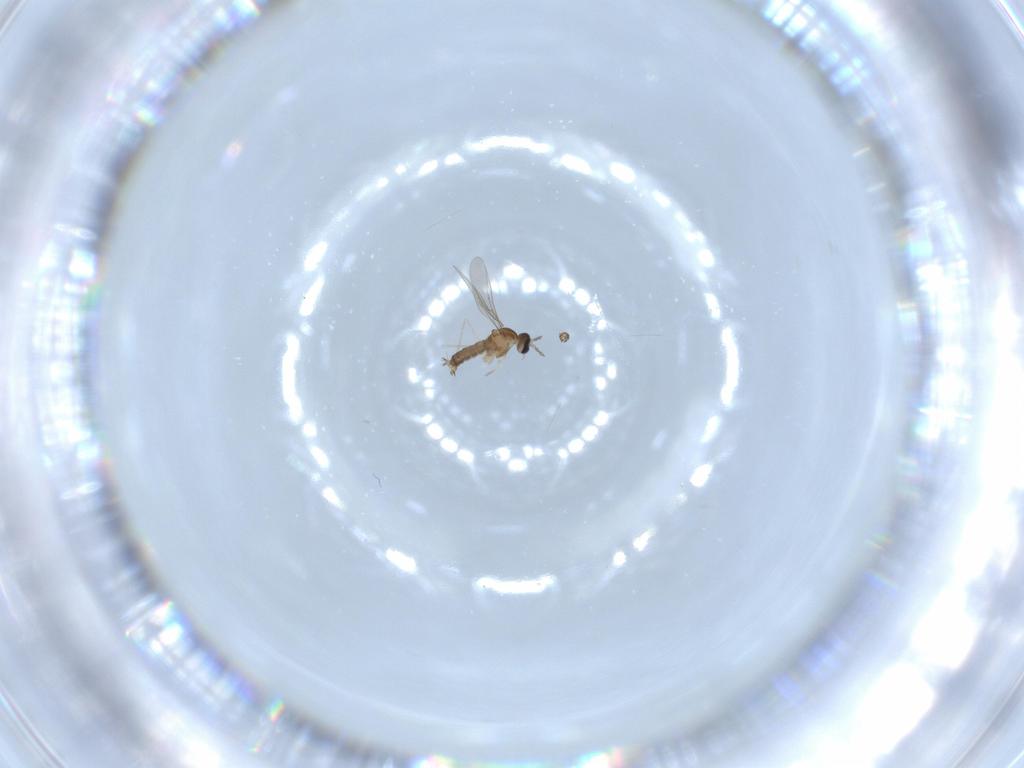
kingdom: Animalia
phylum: Arthropoda
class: Insecta
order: Diptera
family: Cecidomyiidae
